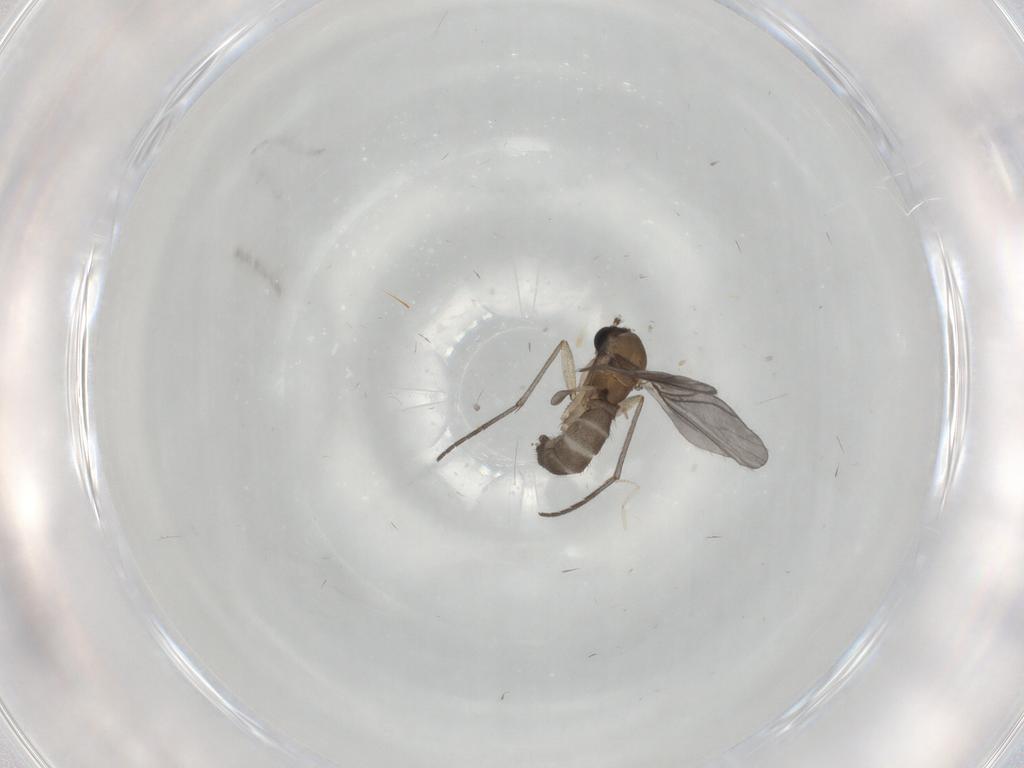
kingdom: Animalia
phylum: Arthropoda
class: Insecta
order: Diptera
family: Sciaridae
